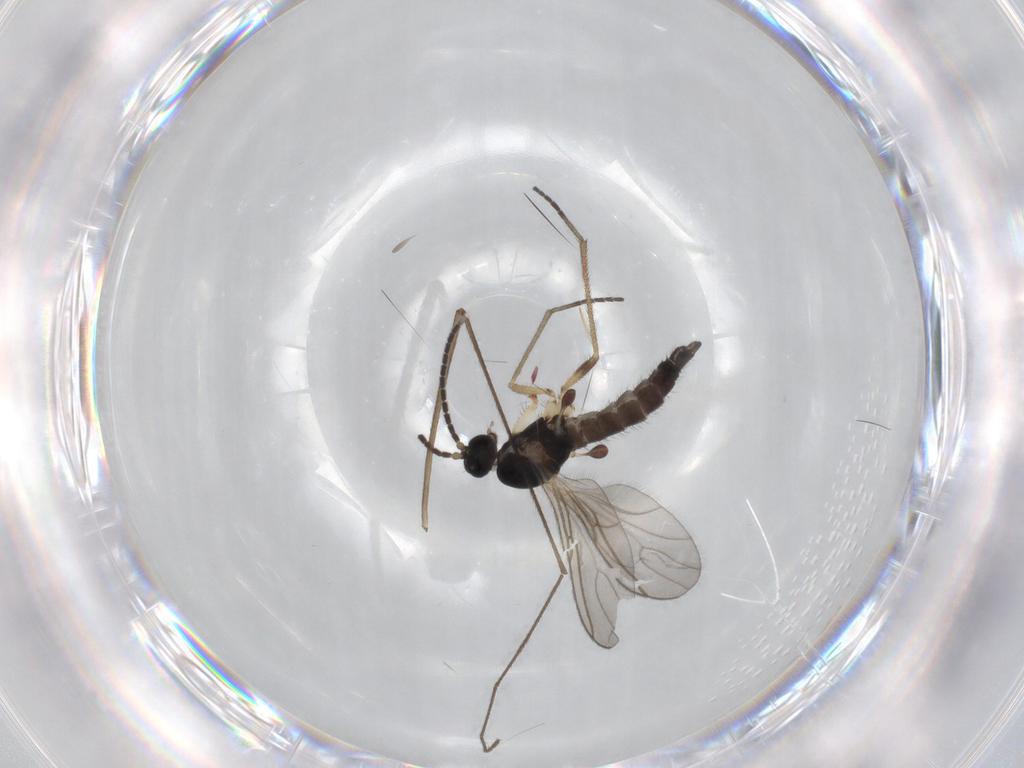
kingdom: Animalia
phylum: Arthropoda
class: Insecta
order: Diptera
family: Sciaridae
